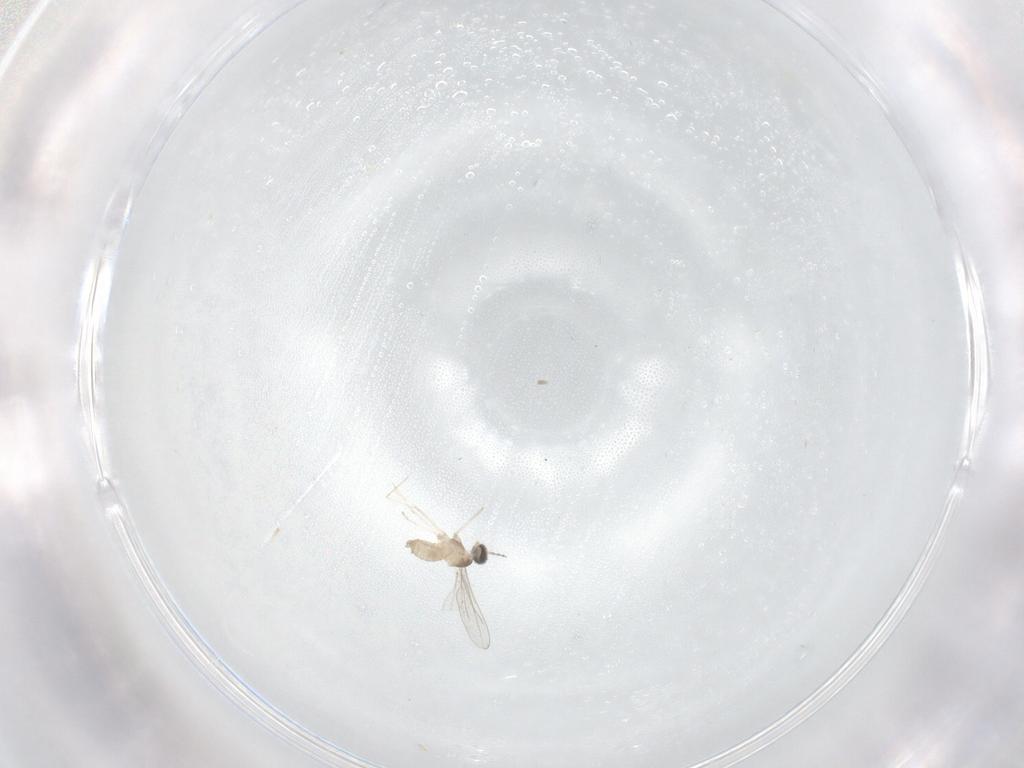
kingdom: Animalia
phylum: Arthropoda
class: Insecta
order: Diptera
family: Cecidomyiidae
